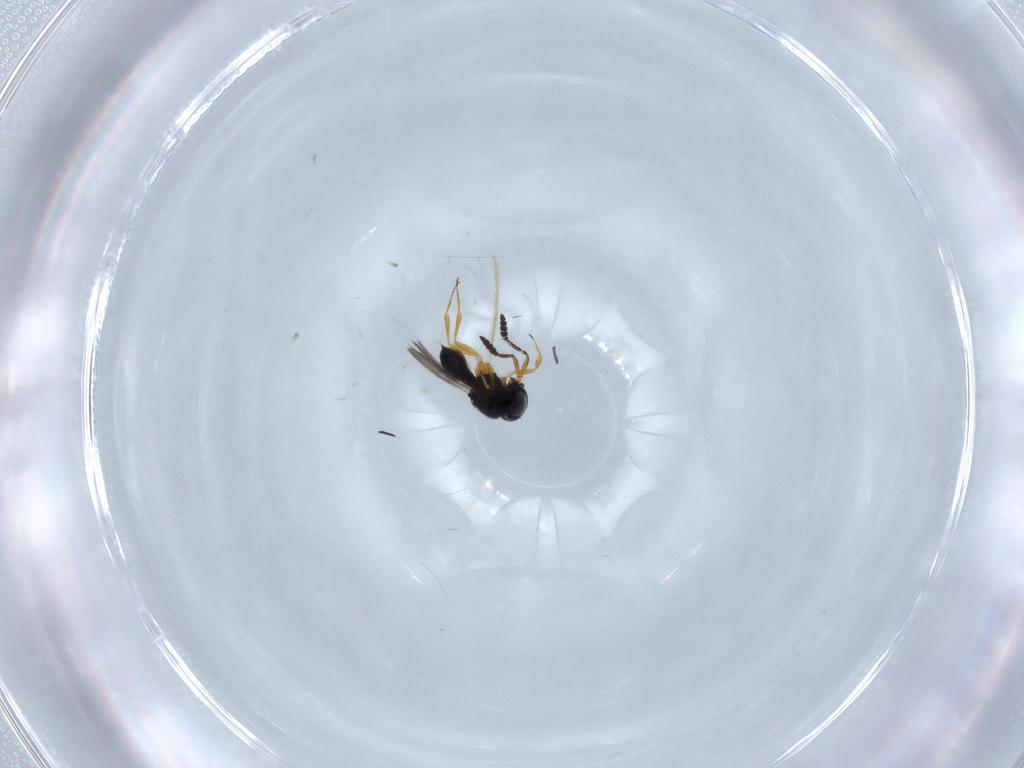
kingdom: Animalia
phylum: Arthropoda
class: Insecta
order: Hymenoptera
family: Scelionidae
